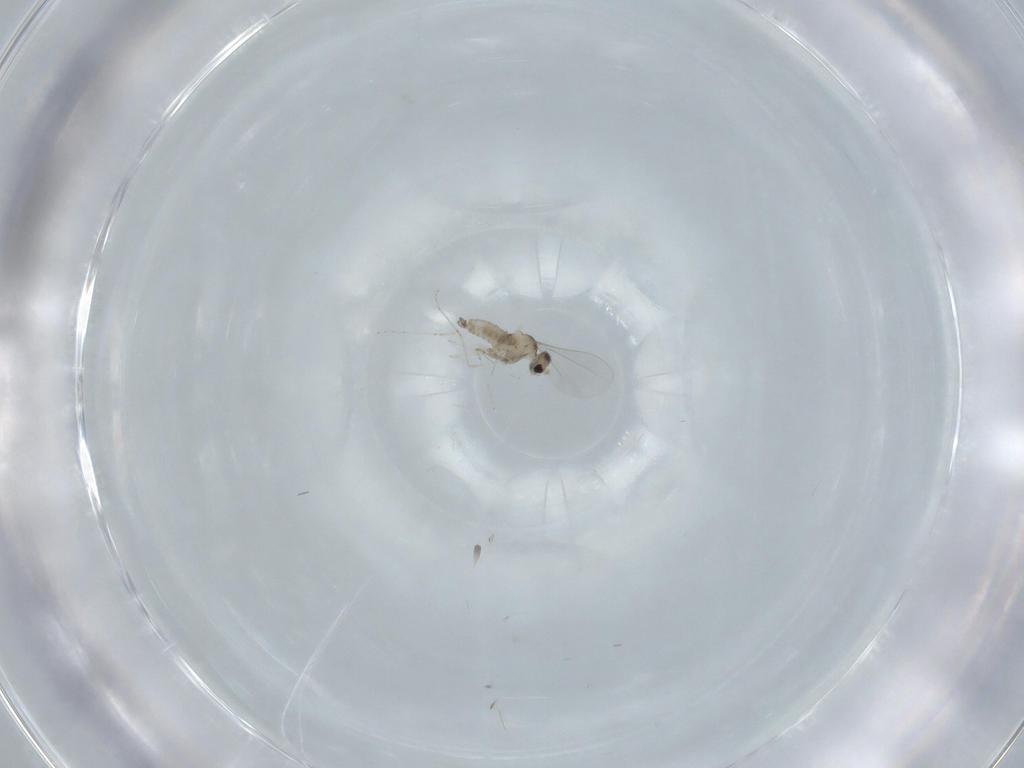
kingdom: Animalia
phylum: Arthropoda
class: Insecta
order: Diptera
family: Cecidomyiidae
